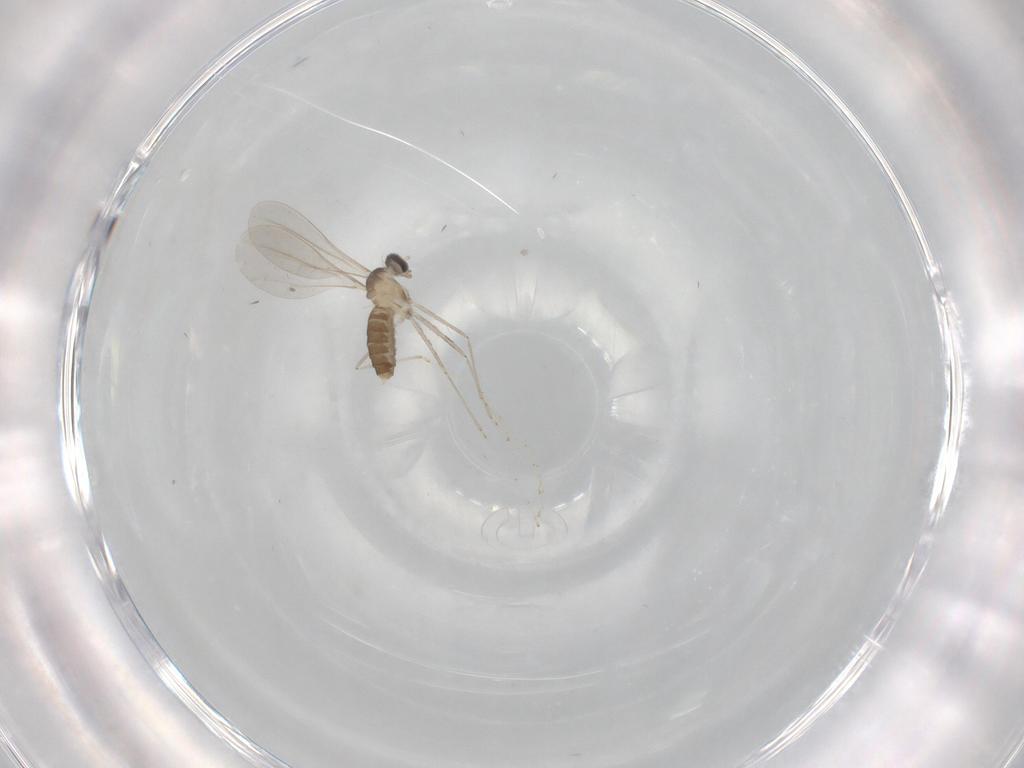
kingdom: Animalia
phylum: Arthropoda
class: Insecta
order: Diptera
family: Cecidomyiidae
